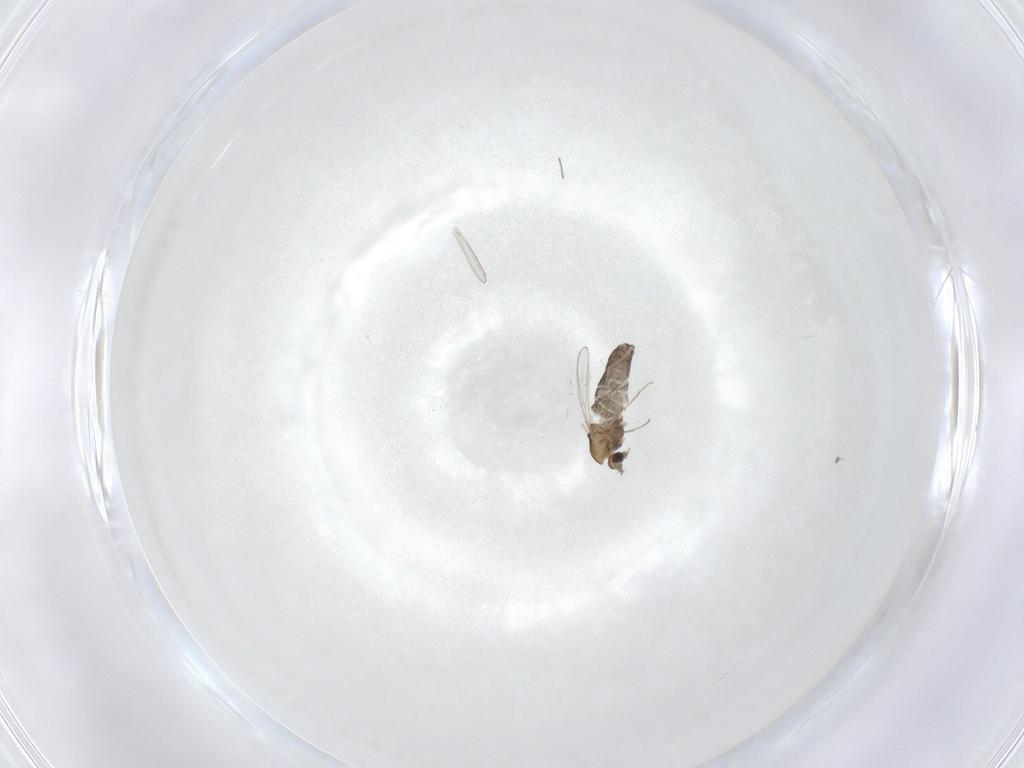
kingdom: Animalia
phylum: Arthropoda
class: Insecta
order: Diptera
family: Chironomidae
